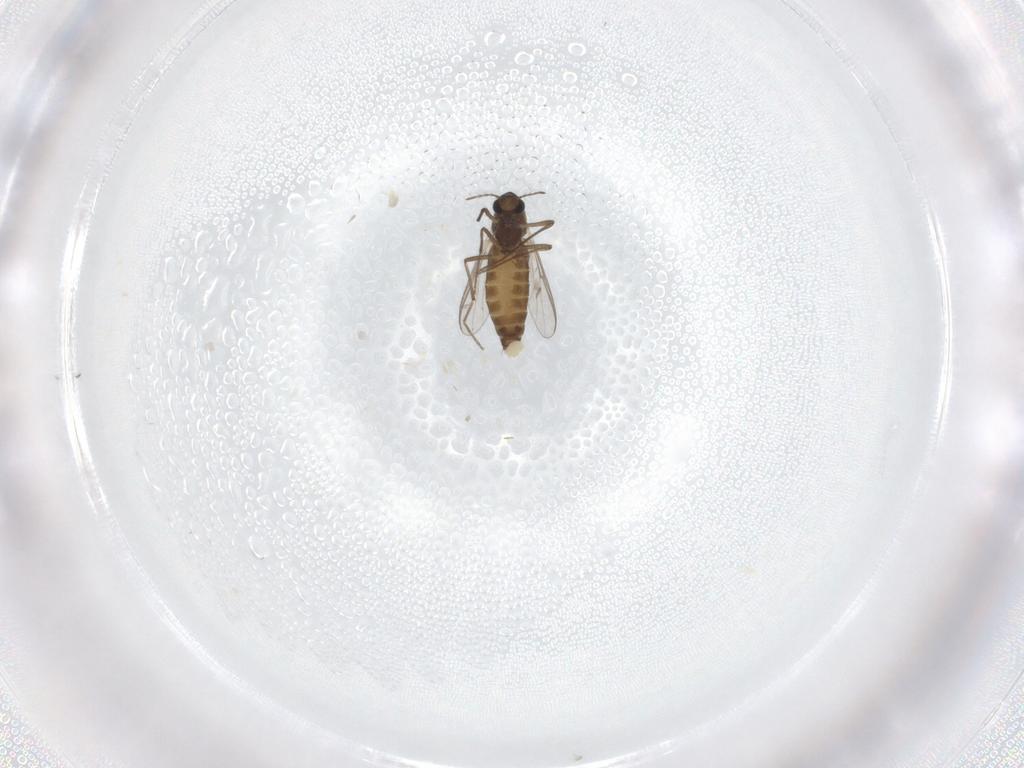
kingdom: Animalia
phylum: Arthropoda
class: Insecta
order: Diptera
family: Chironomidae
